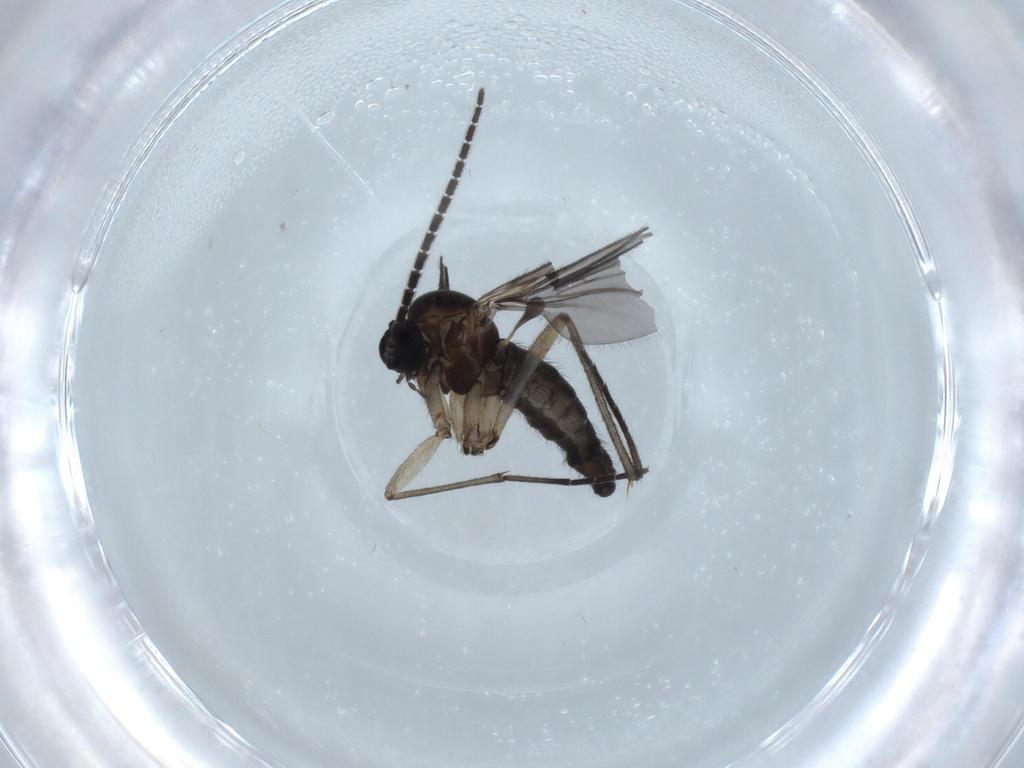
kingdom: Animalia
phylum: Arthropoda
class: Insecta
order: Diptera
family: Sciaridae
